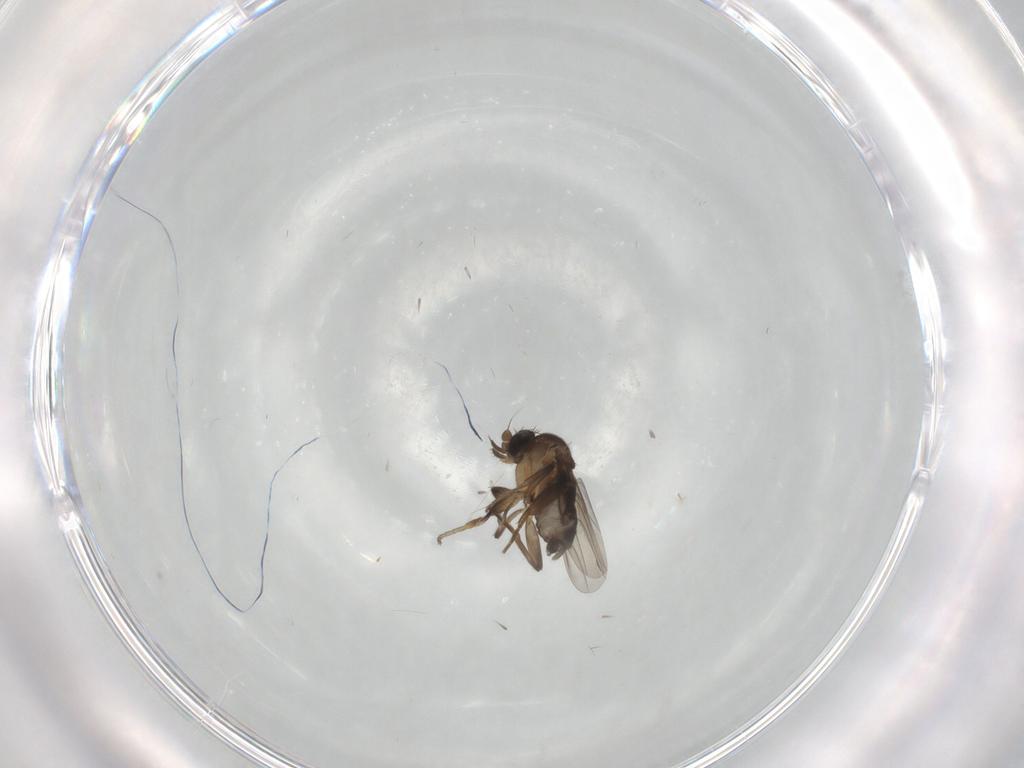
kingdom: Animalia
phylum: Arthropoda
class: Insecta
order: Diptera
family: Phoridae
